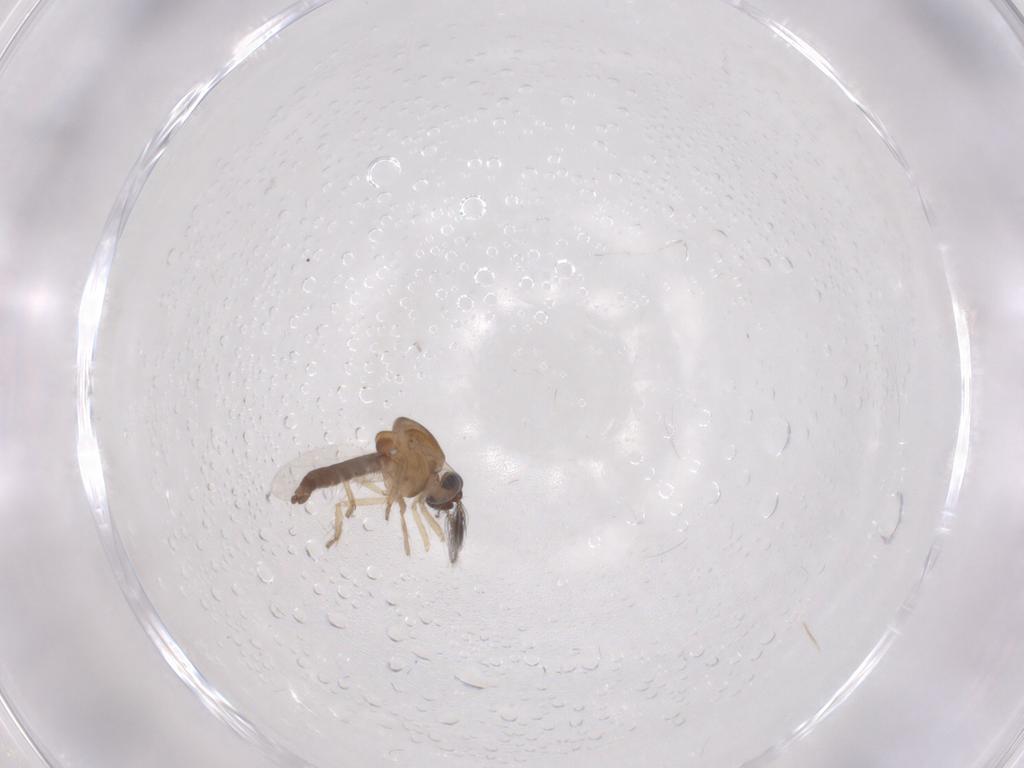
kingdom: Animalia
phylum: Arthropoda
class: Insecta
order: Diptera
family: Ceratopogonidae
